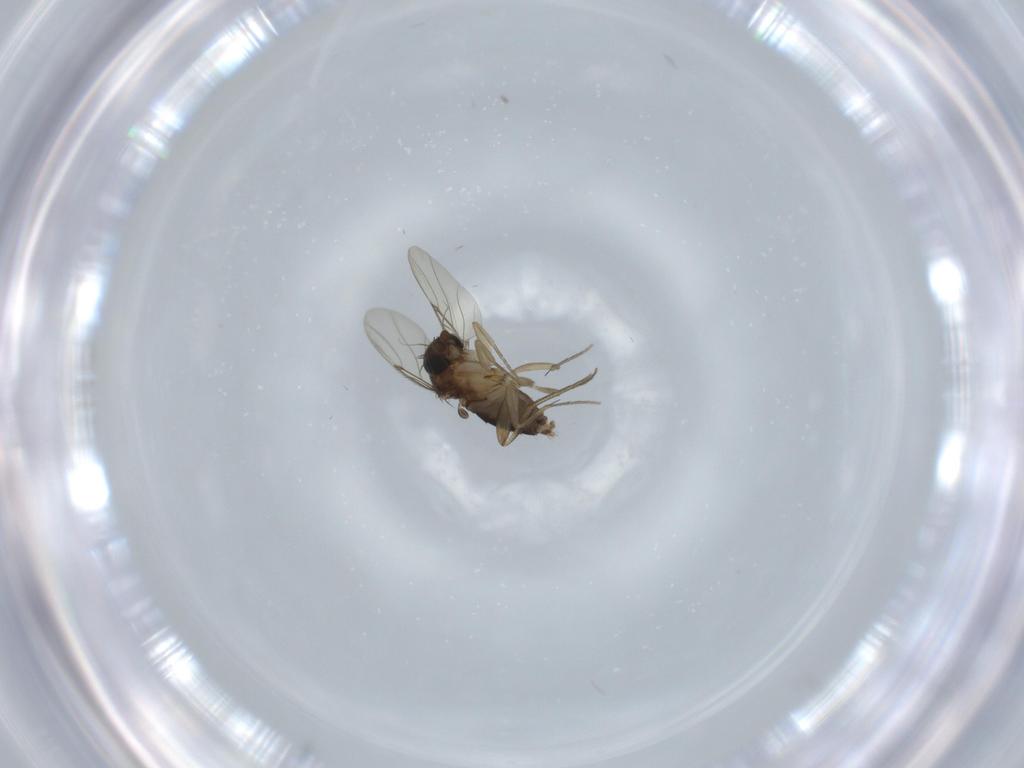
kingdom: Animalia
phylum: Arthropoda
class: Insecta
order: Diptera
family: Phoridae
